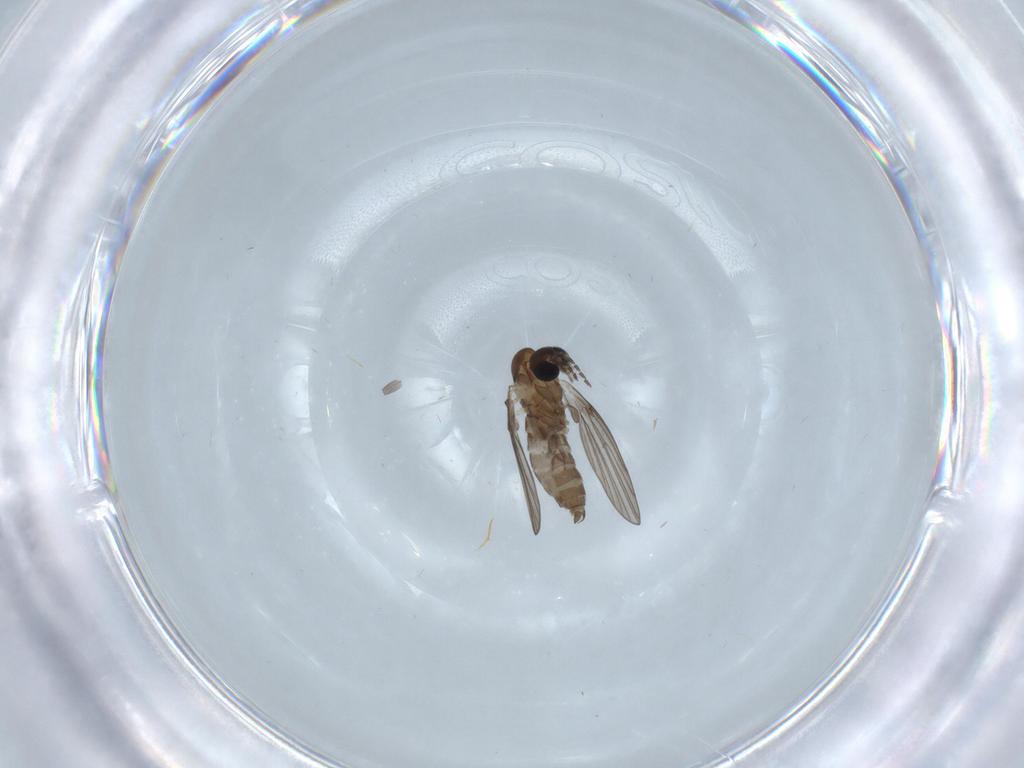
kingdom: Animalia
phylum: Arthropoda
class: Insecta
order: Diptera
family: Psychodidae
